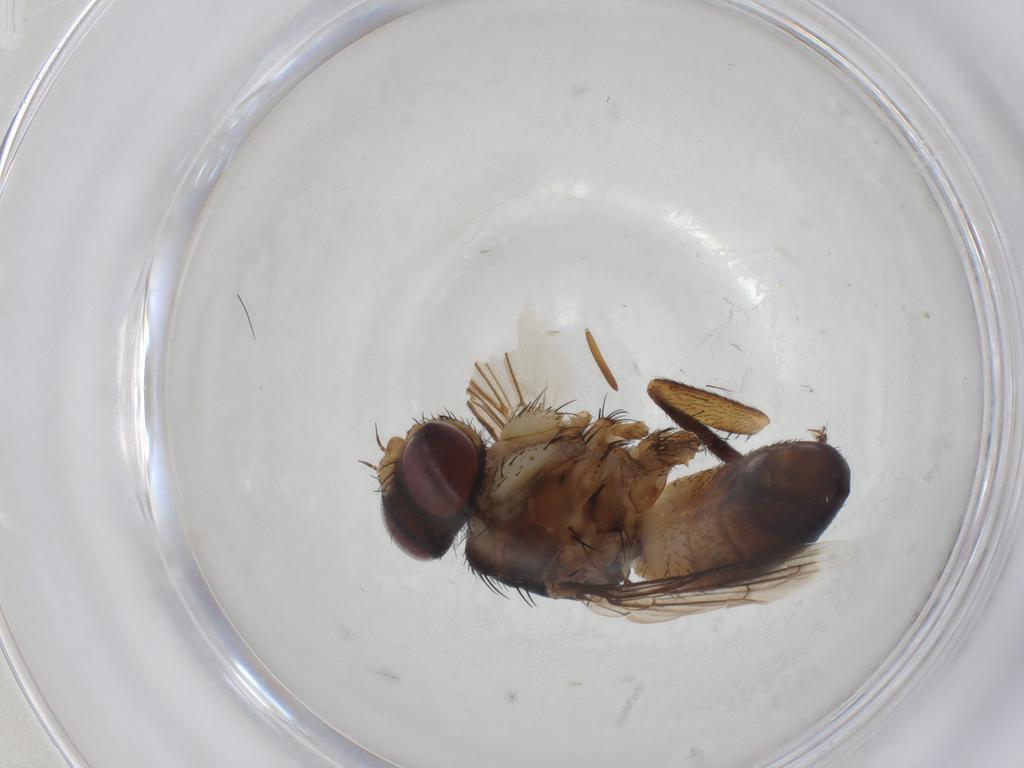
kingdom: Animalia
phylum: Arthropoda
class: Insecta
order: Diptera
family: Tachinidae
